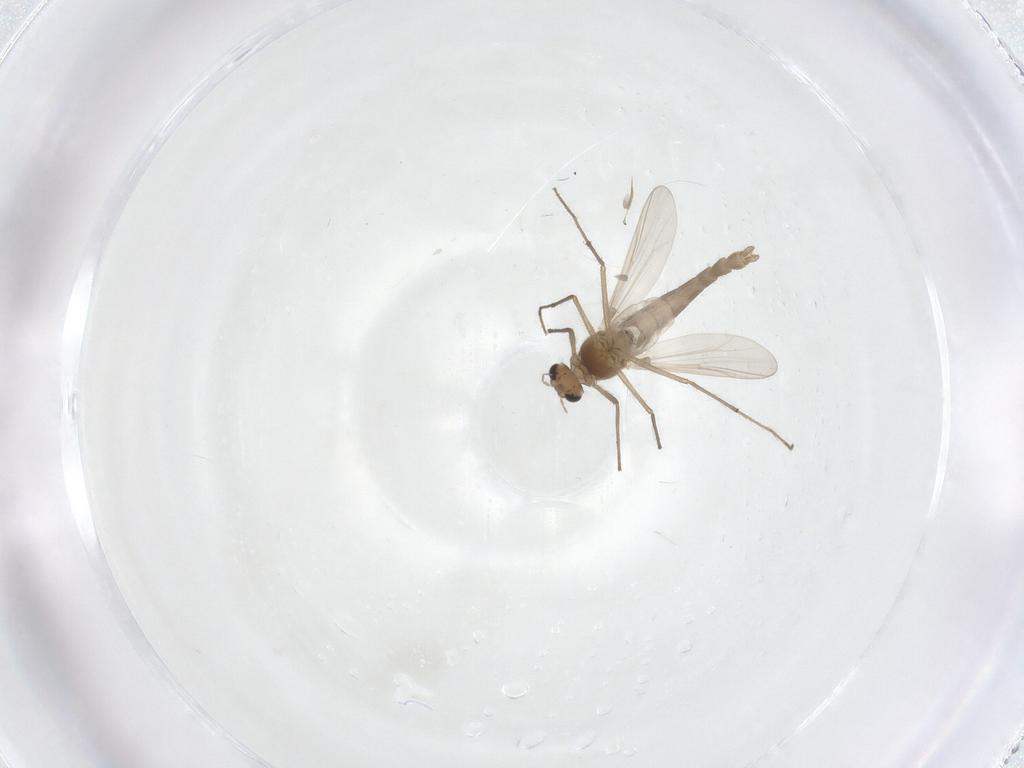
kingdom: Animalia
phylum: Arthropoda
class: Insecta
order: Diptera
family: Chironomidae
